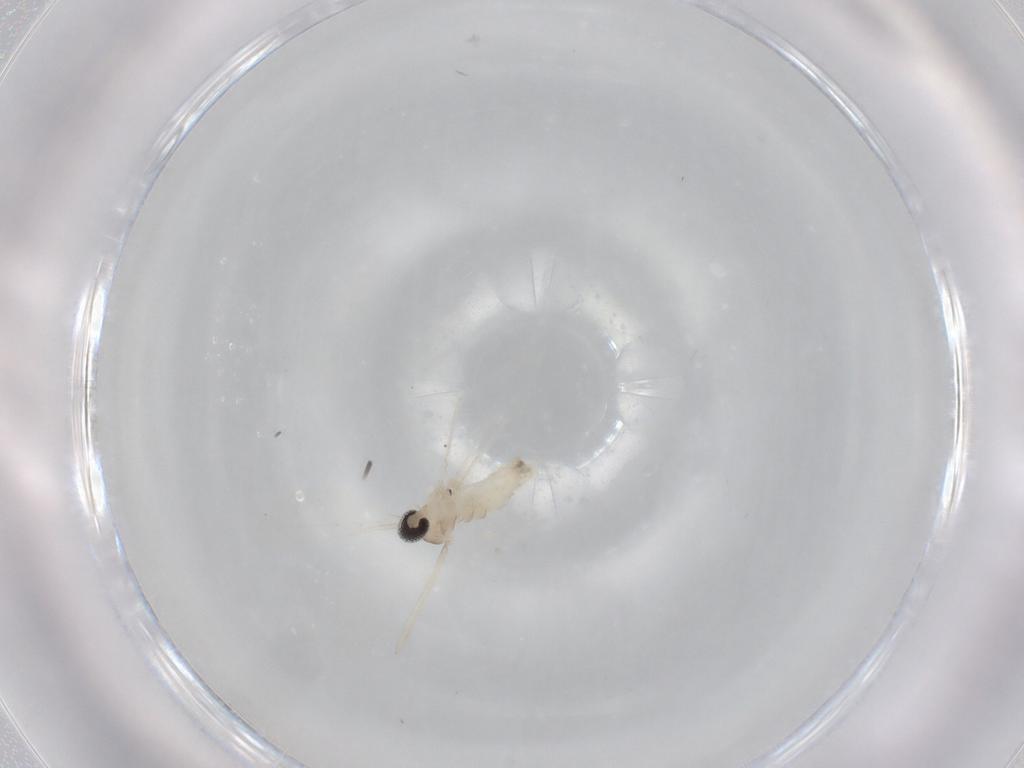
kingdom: Animalia
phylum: Arthropoda
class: Insecta
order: Diptera
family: Cecidomyiidae
